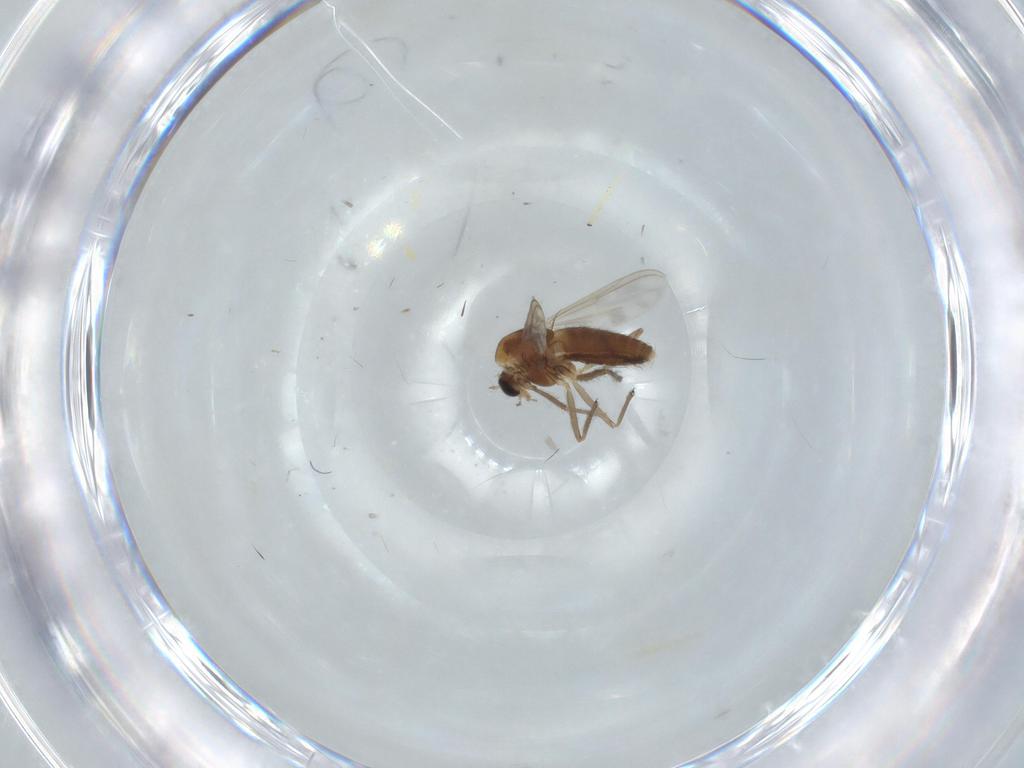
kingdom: Animalia
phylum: Arthropoda
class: Insecta
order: Diptera
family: Chironomidae
